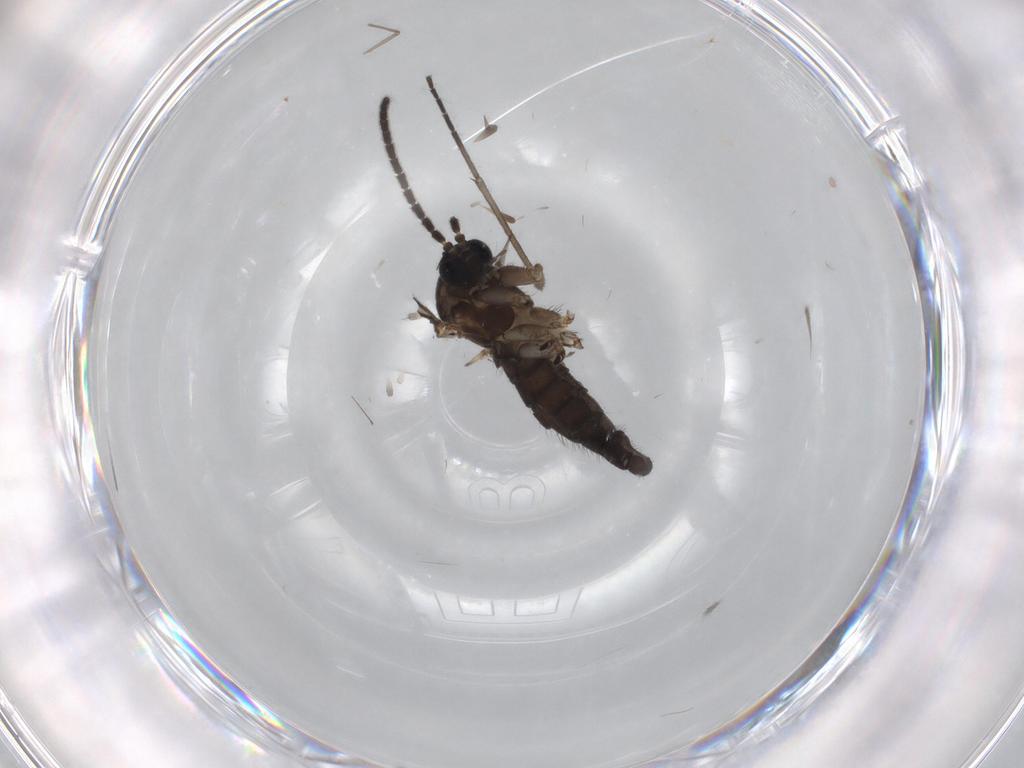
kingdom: Animalia
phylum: Arthropoda
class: Insecta
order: Diptera
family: Sciaridae
